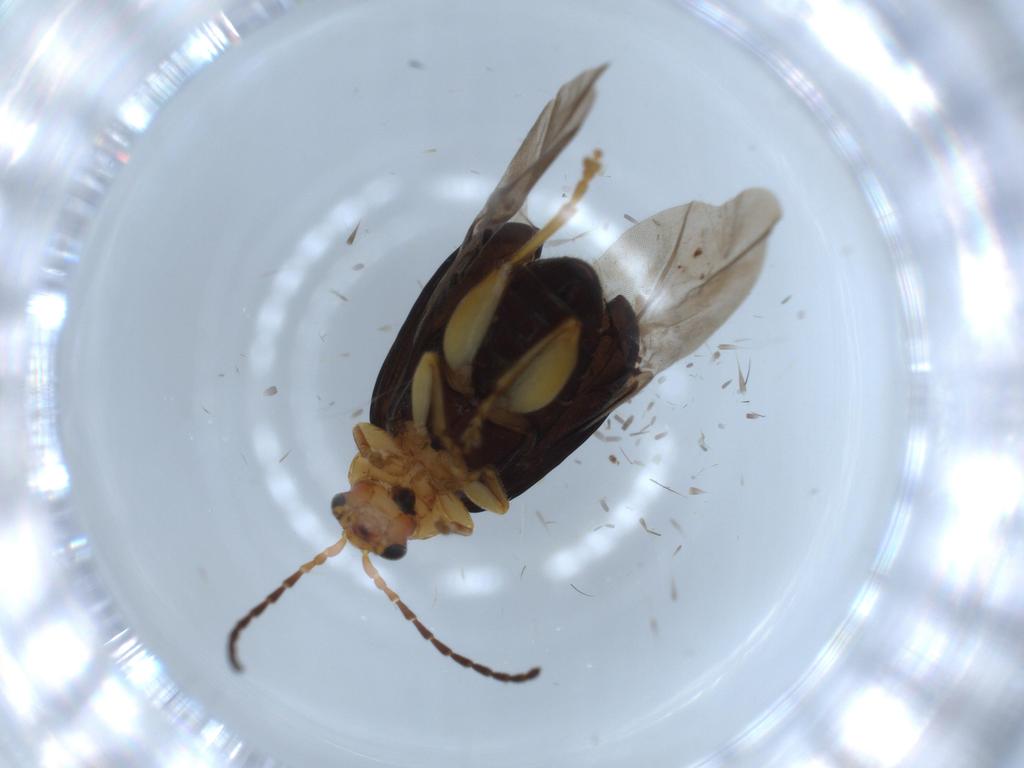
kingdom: Animalia
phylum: Arthropoda
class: Insecta
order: Coleoptera
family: Chrysomelidae
